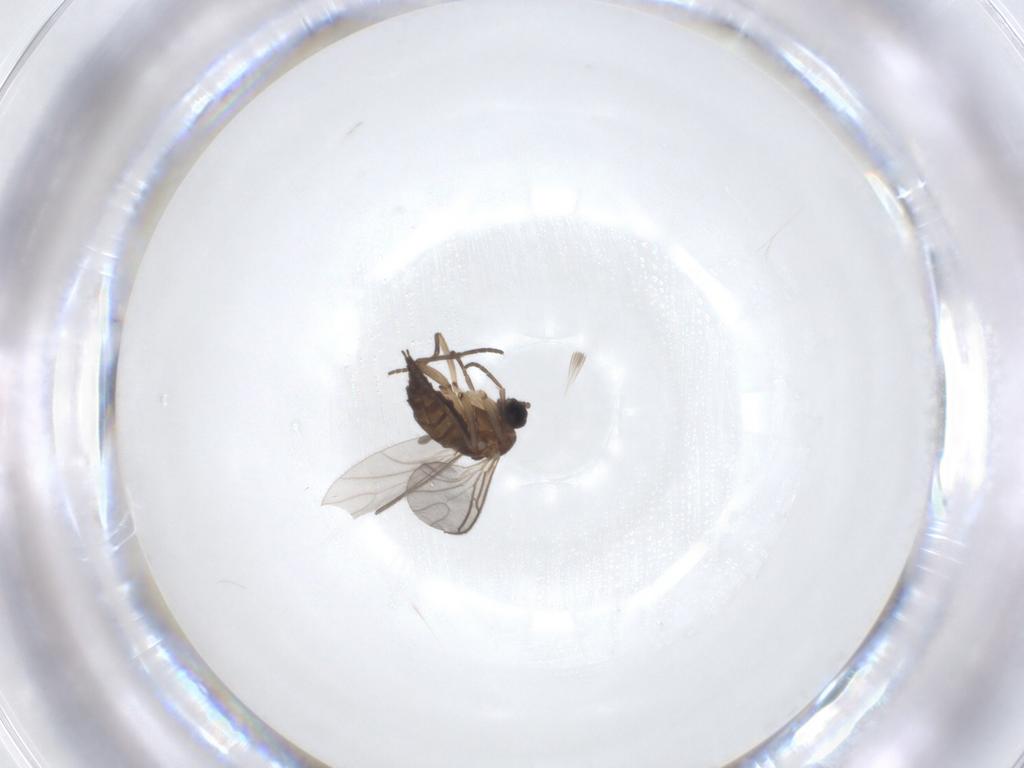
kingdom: Animalia
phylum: Arthropoda
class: Insecta
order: Diptera
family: Sciaridae
